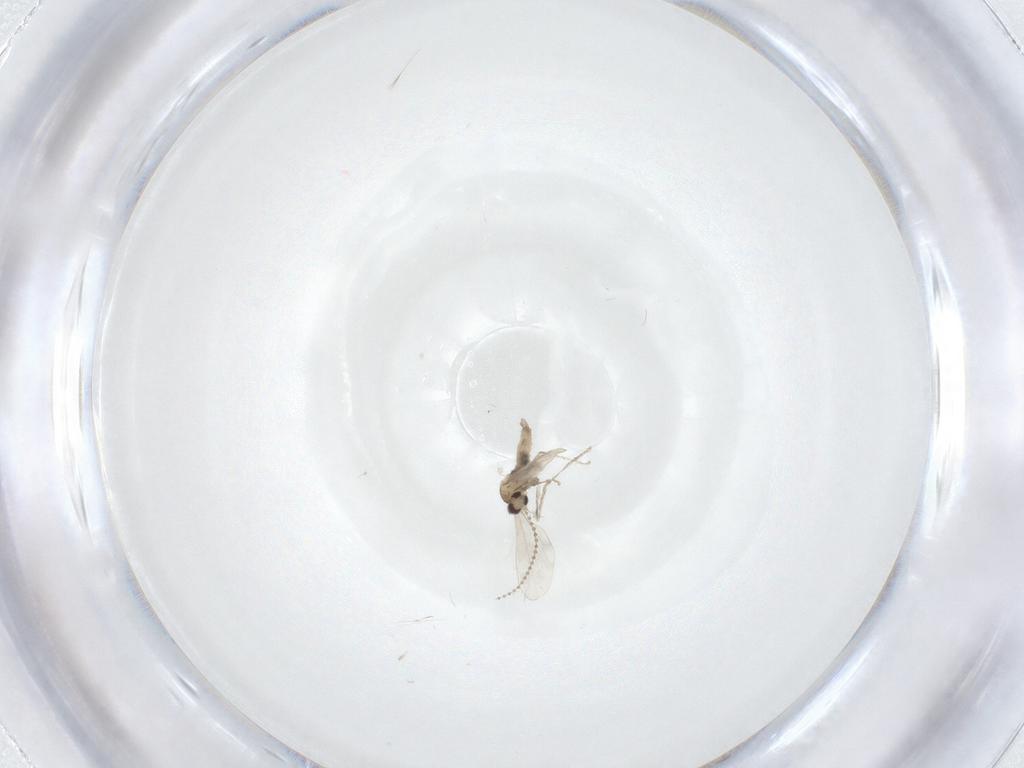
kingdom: Animalia
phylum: Arthropoda
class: Insecta
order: Diptera
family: Cecidomyiidae
